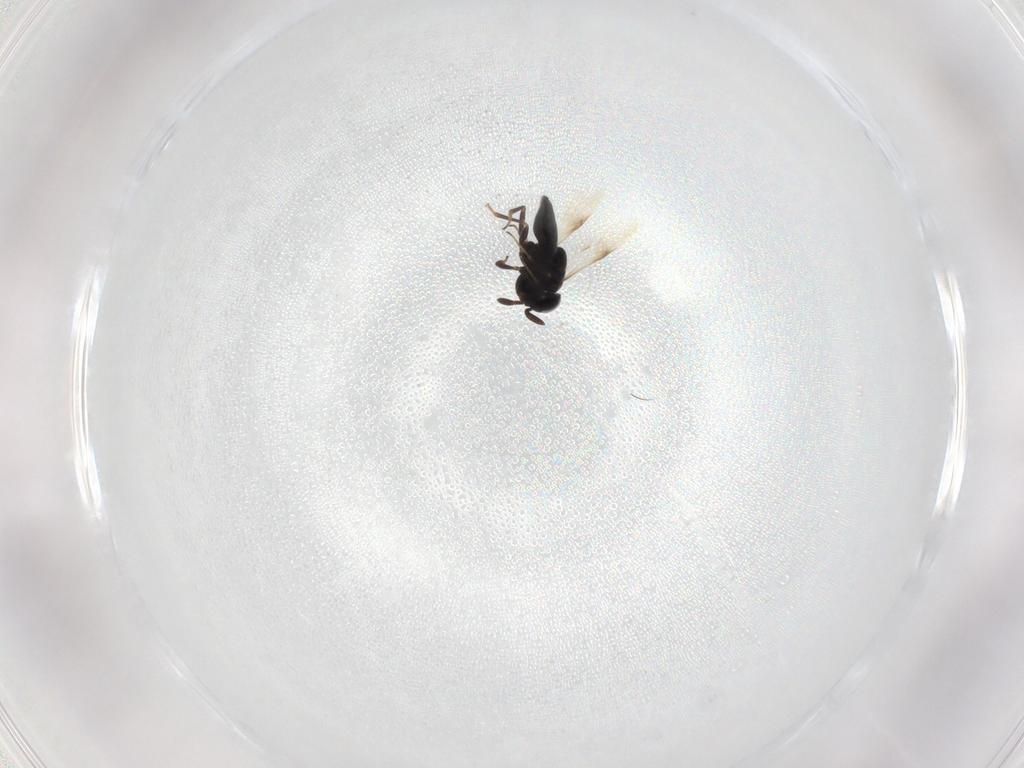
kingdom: Animalia
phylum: Arthropoda
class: Insecta
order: Hymenoptera
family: Scelionidae
